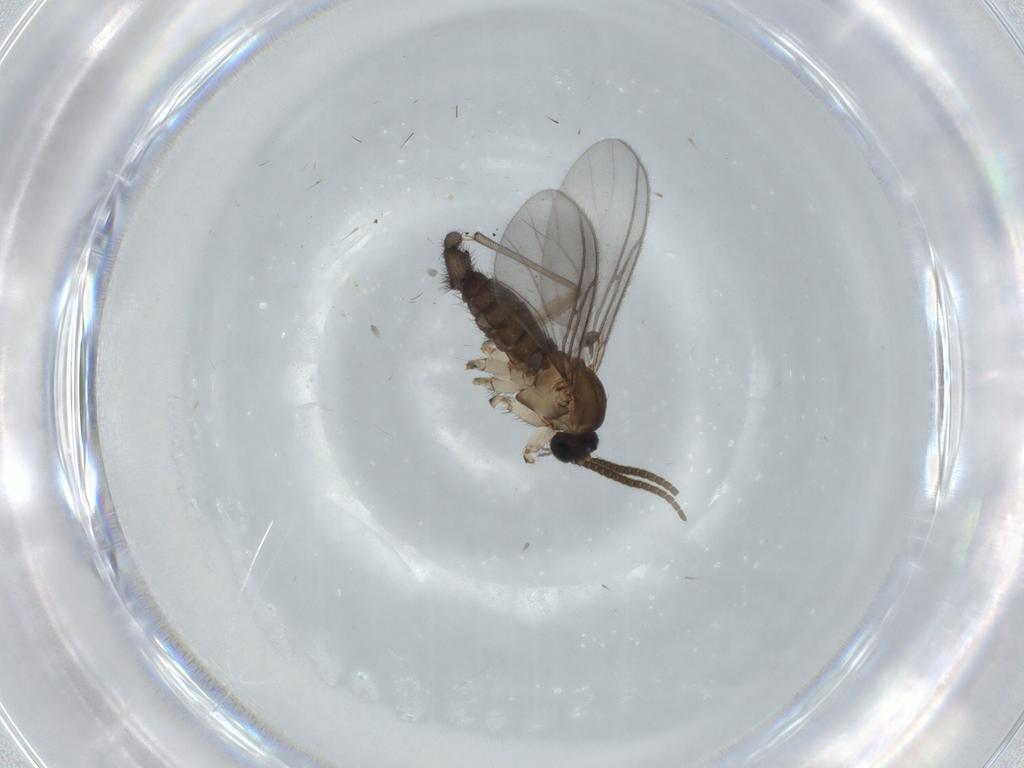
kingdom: Animalia
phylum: Arthropoda
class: Insecta
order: Diptera
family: Sciaridae
